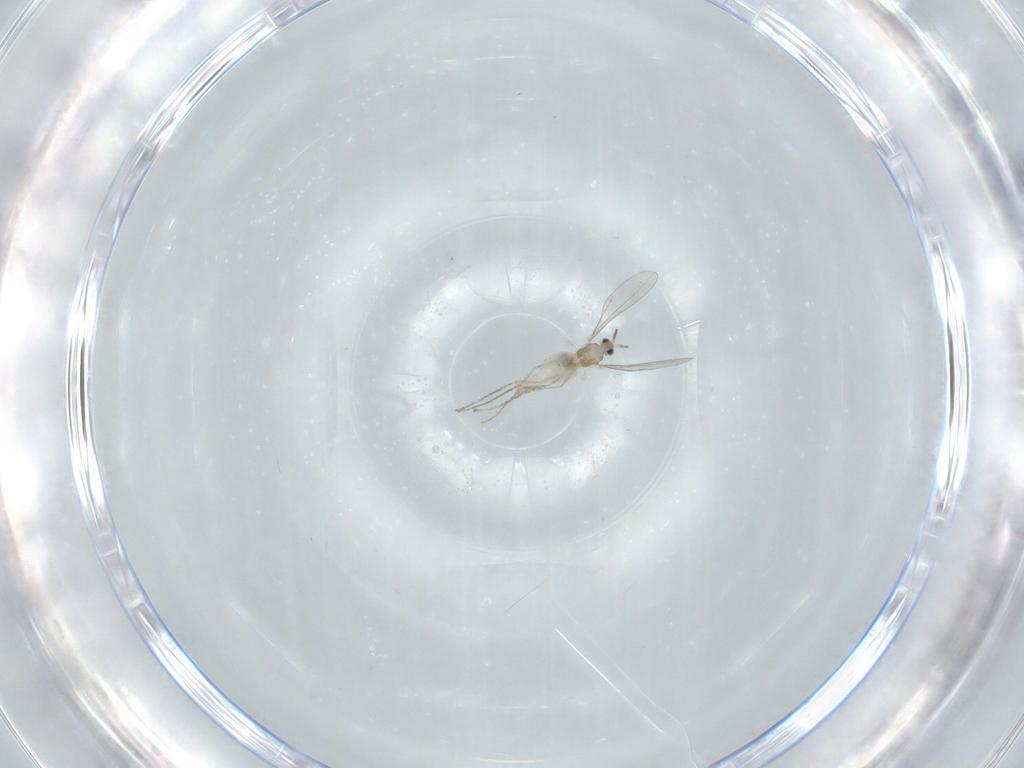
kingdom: Animalia
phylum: Arthropoda
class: Insecta
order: Diptera
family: Cecidomyiidae
